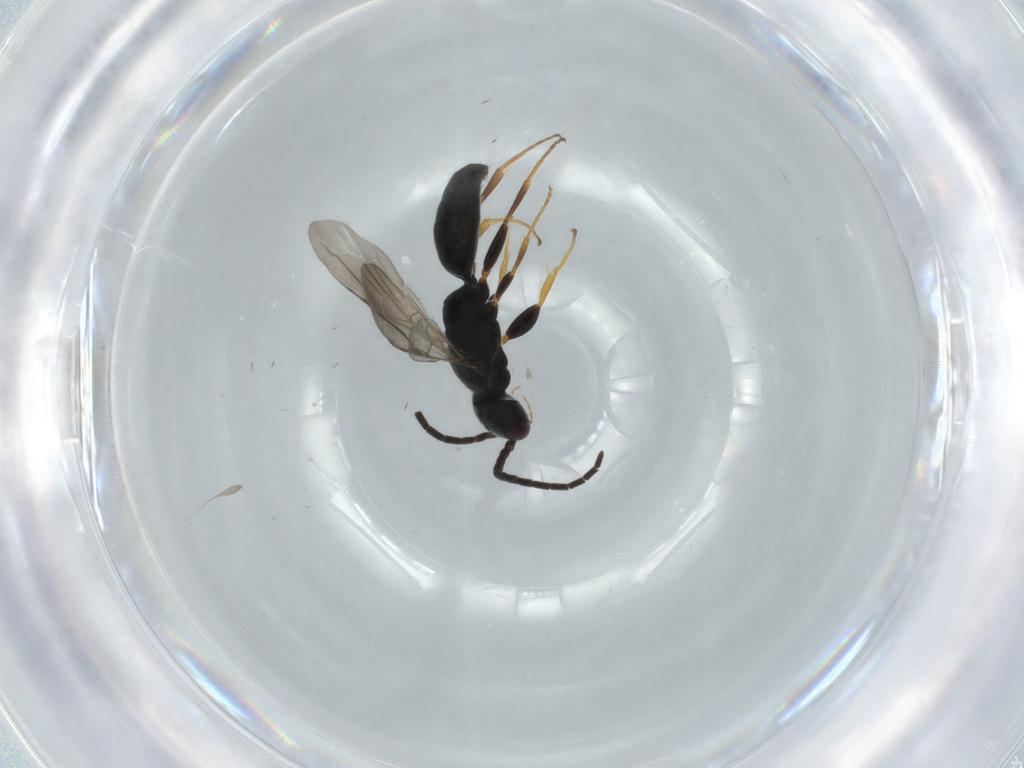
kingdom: Animalia
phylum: Arthropoda
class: Insecta
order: Hymenoptera
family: Bethylidae
